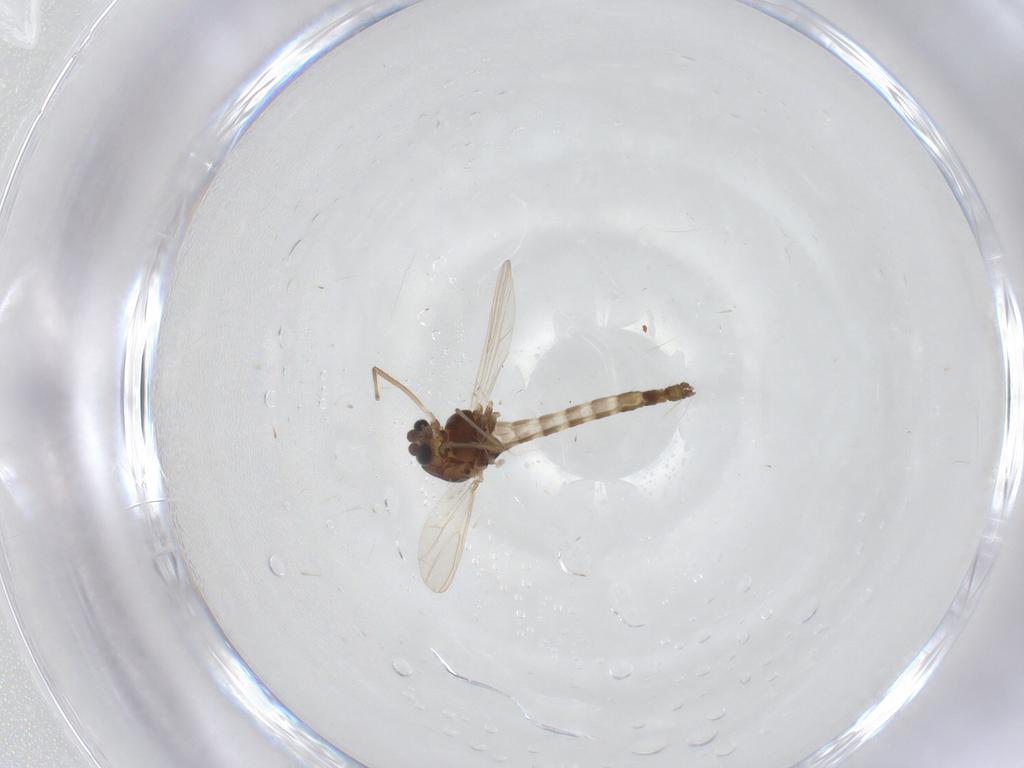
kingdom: Animalia
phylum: Arthropoda
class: Insecta
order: Diptera
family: Chironomidae
